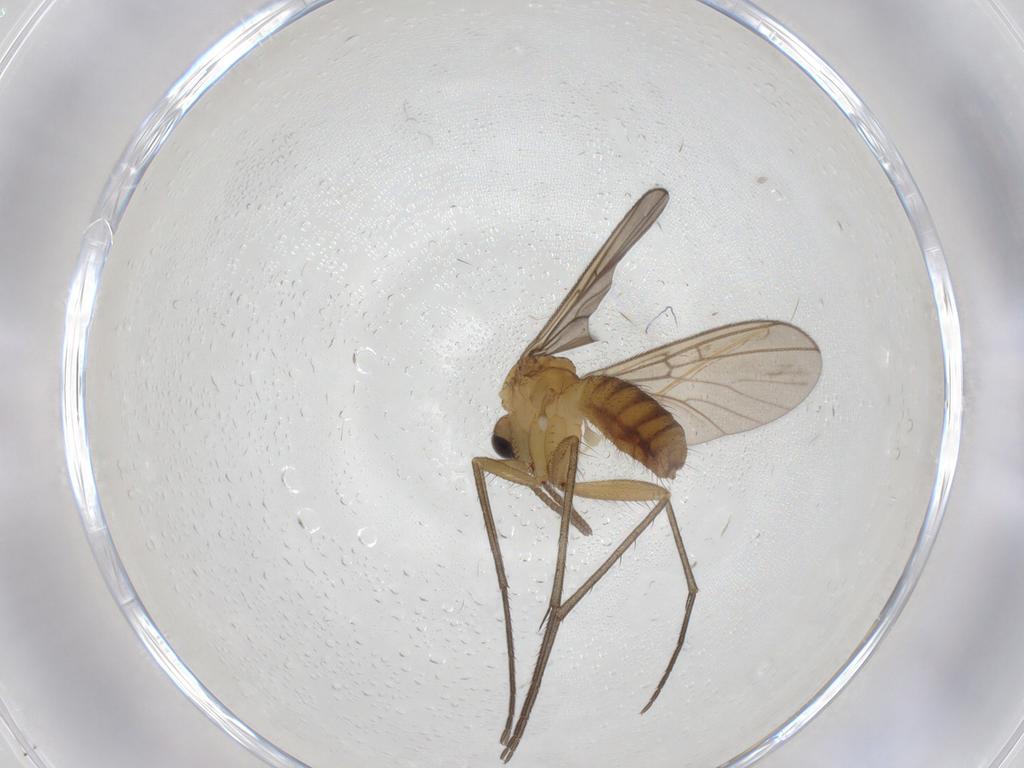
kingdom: Animalia
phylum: Arthropoda
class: Insecta
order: Diptera
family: Mycetophilidae
